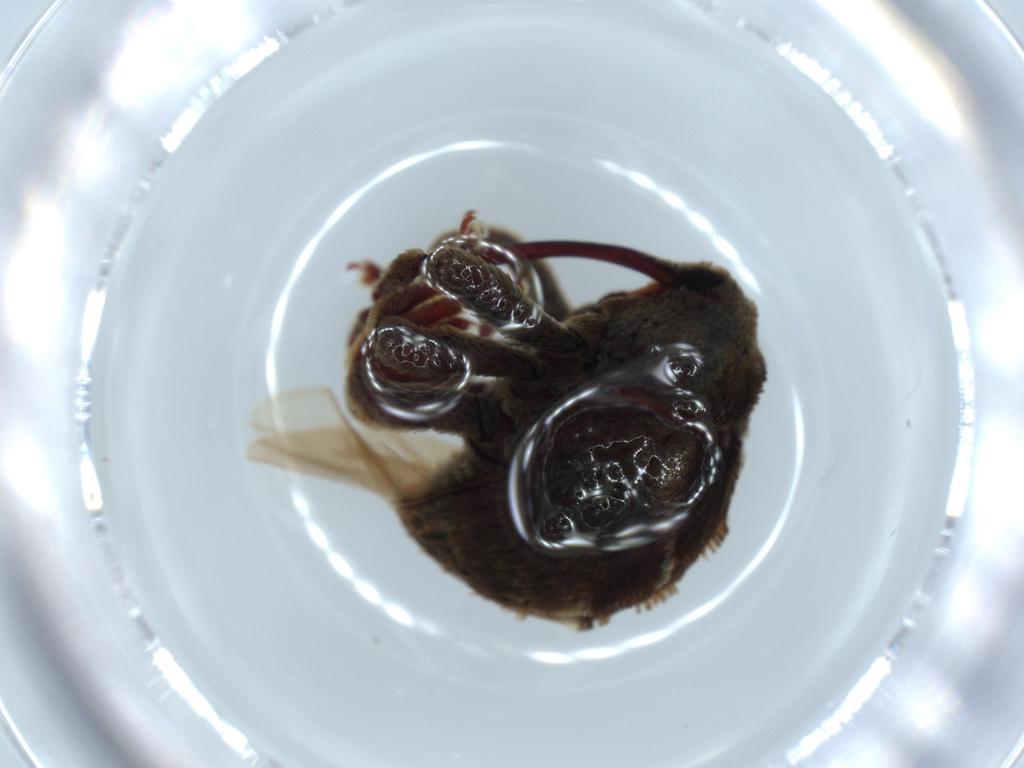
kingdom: Animalia
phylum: Arthropoda
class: Insecta
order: Coleoptera
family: Curculionidae
